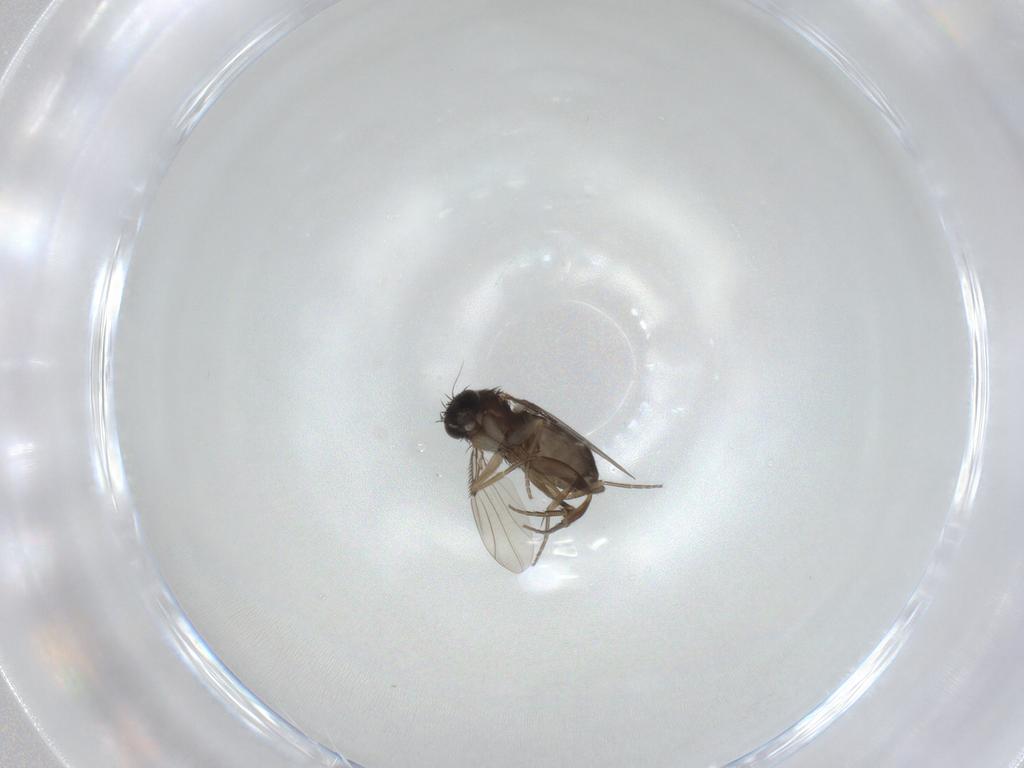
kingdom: Animalia
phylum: Arthropoda
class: Insecta
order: Diptera
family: Phoridae
